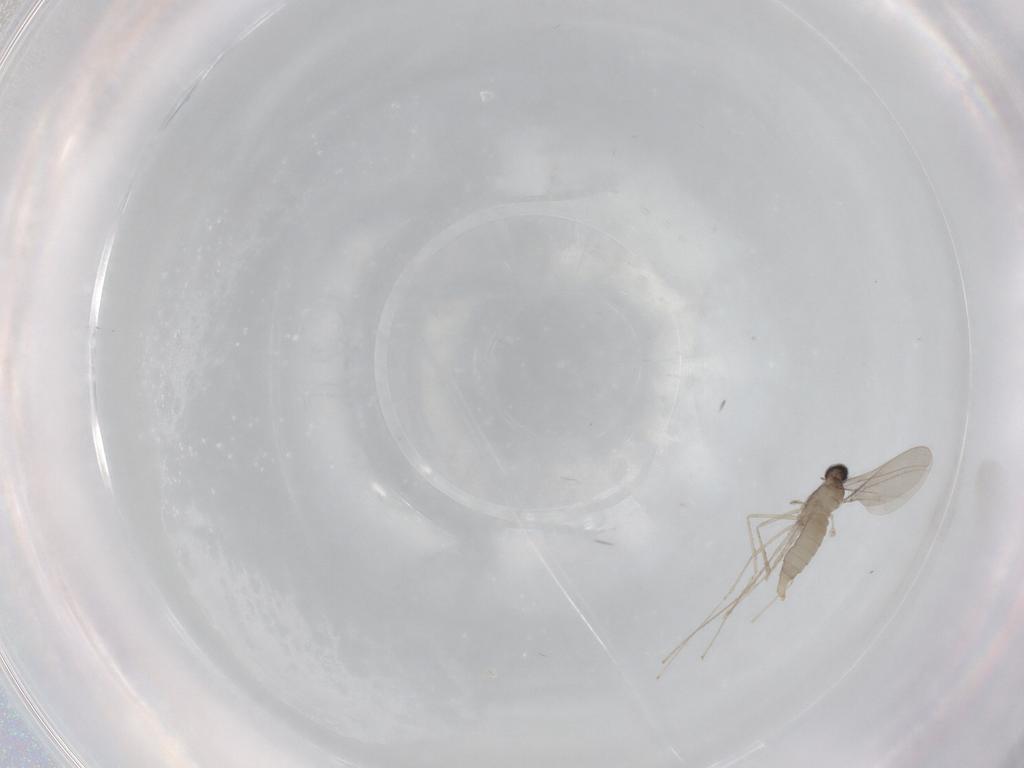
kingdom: Animalia
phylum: Arthropoda
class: Insecta
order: Diptera
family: Cecidomyiidae
